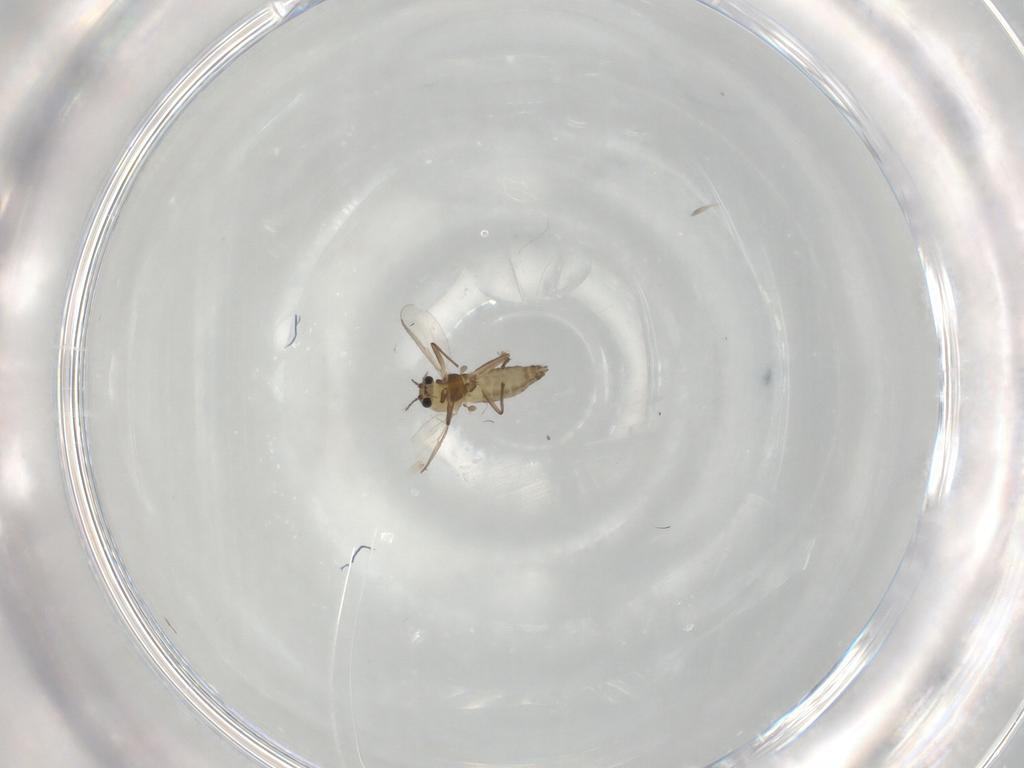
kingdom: Animalia
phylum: Arthropoda
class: Insecta
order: Diptera
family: Chironomidae
